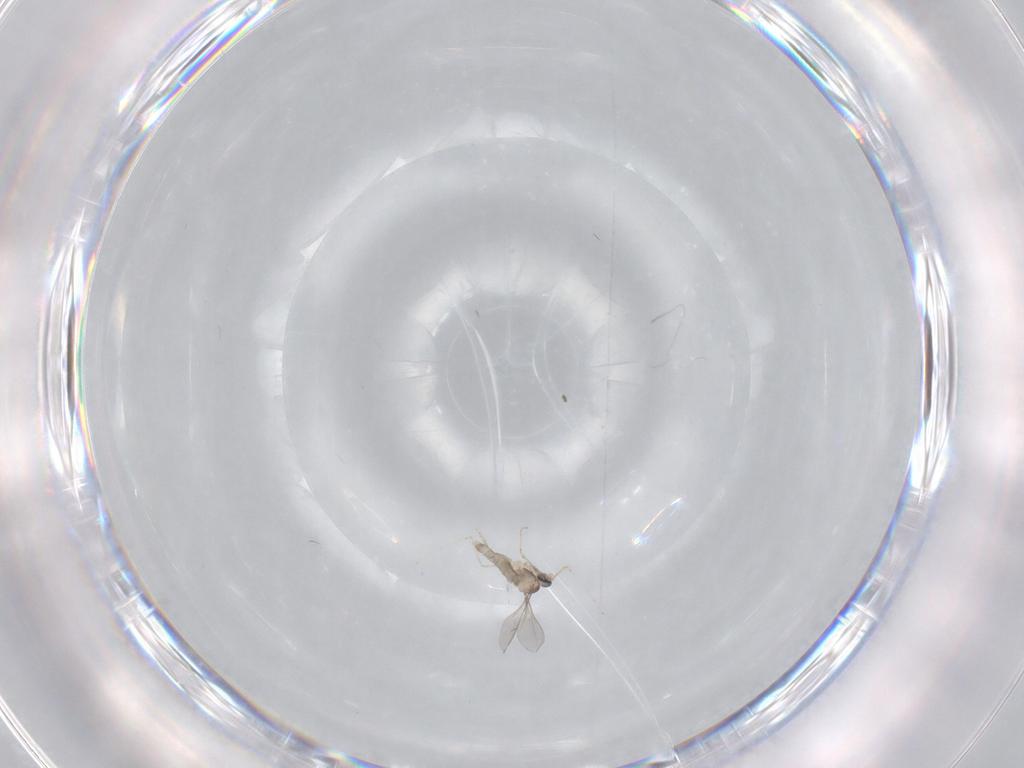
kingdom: Animalia
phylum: Arthropoda
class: Insecta
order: Diptera
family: Cecidomyiidae
